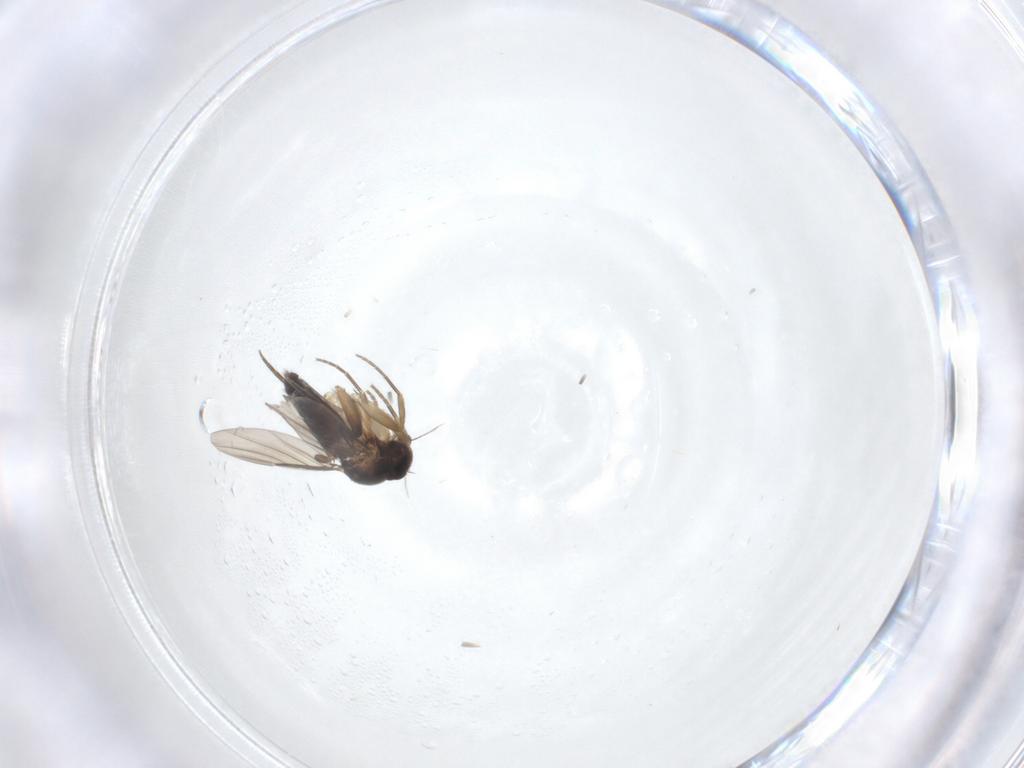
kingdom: Animalia
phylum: Arthropoda
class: Insecta
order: Diptera
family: Phoridae
